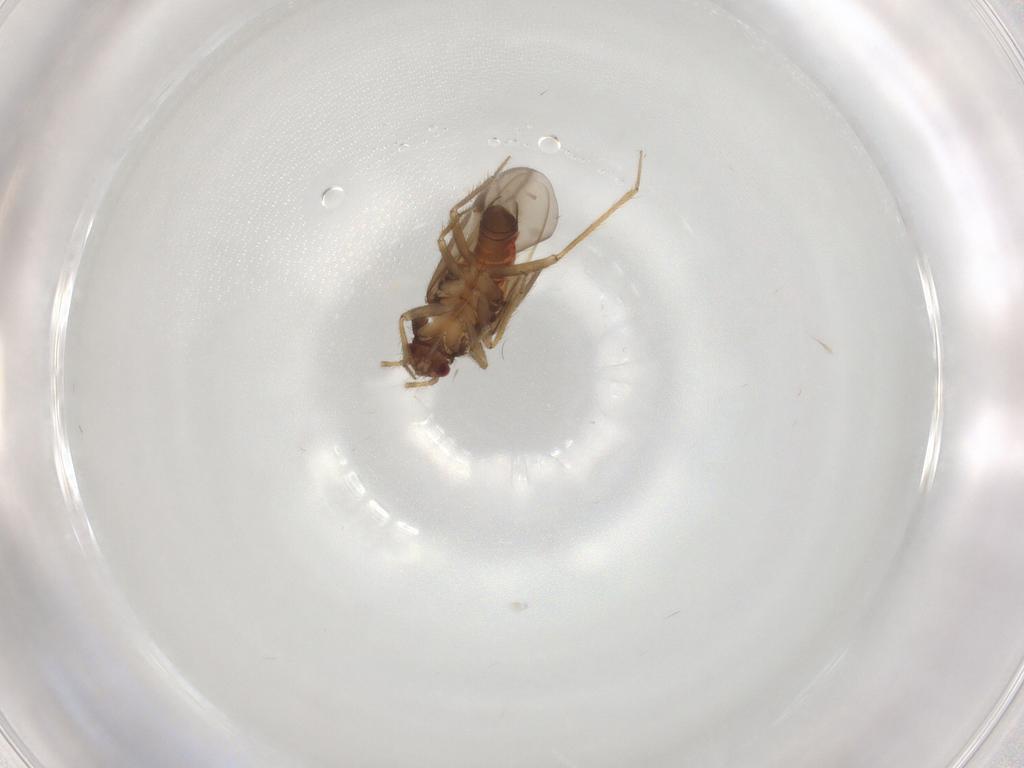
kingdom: Animalia
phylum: Arthropoda
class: Insecta
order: Hemiptera
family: Ceratocombidae
